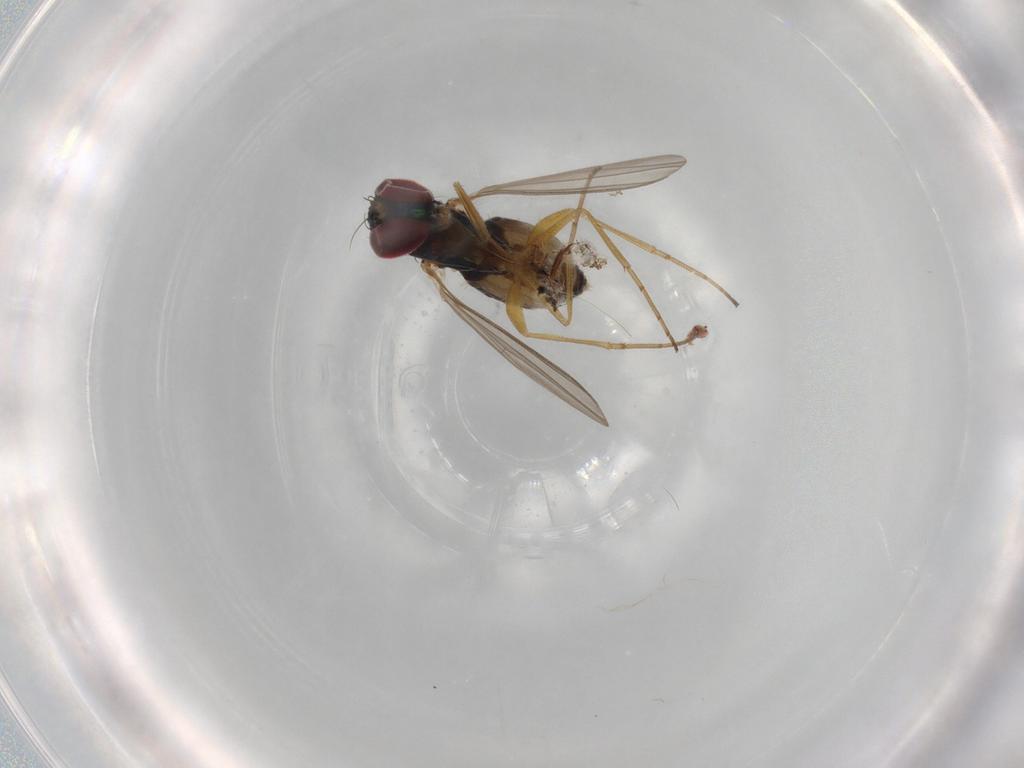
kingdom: Animalia
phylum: Arthropoda
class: Insecta
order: Diptera
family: Dolichopodidae
